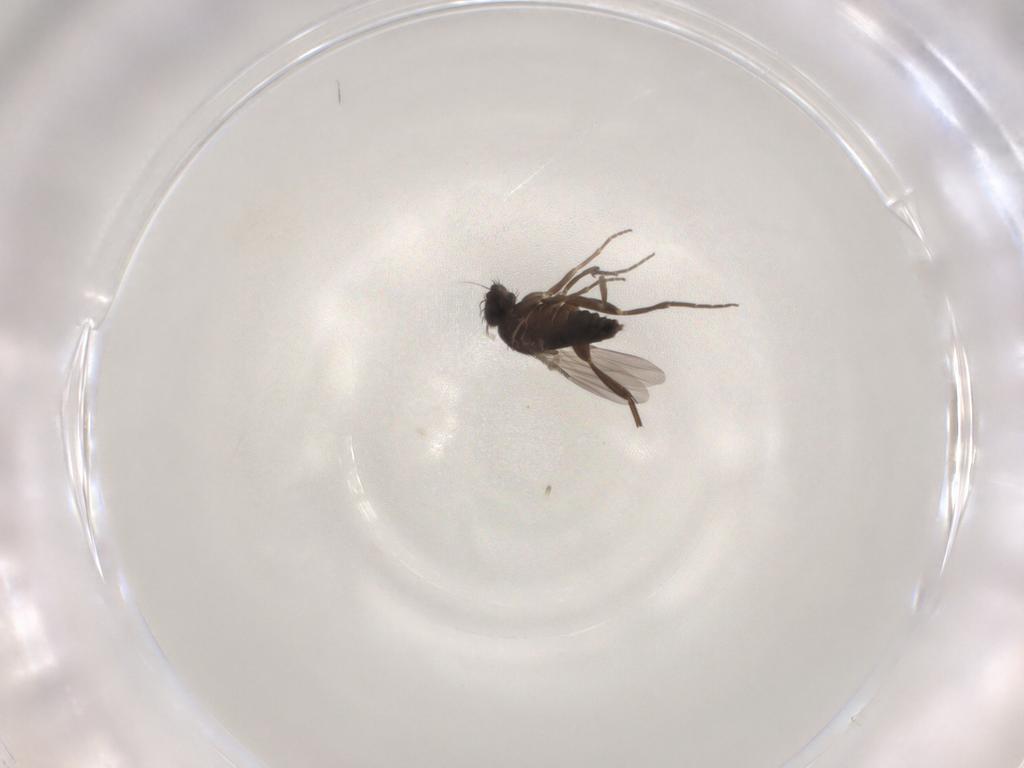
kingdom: Animalia
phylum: Arthropoda
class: Insecta
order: Diptera
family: Phoridae
